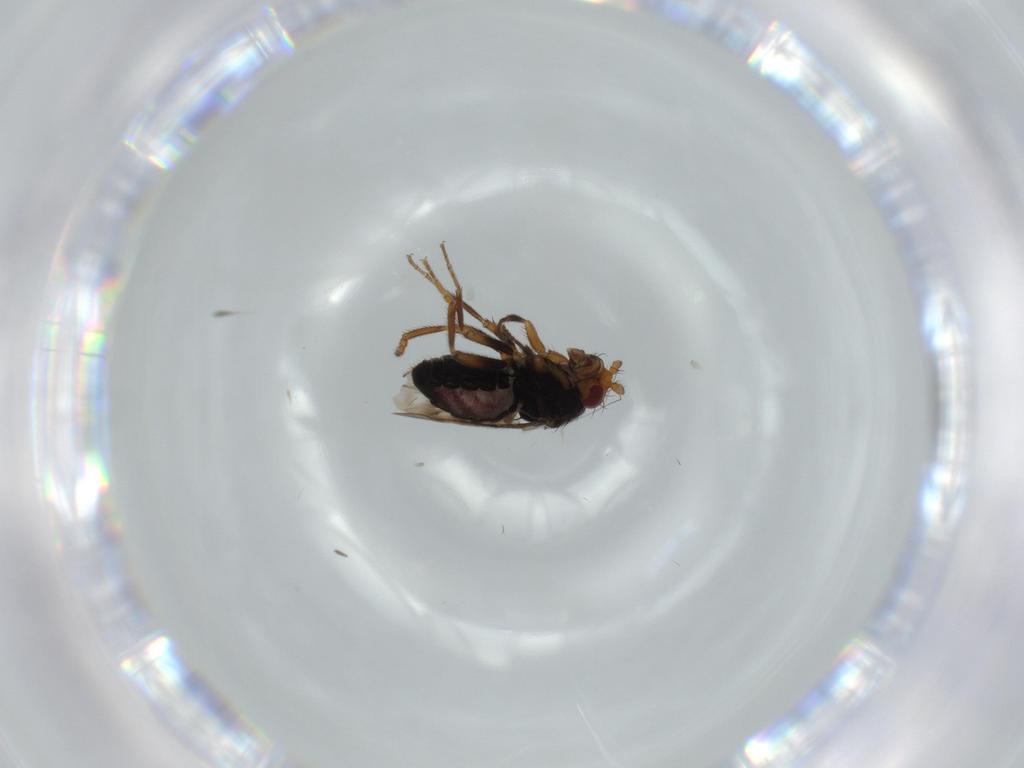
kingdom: Animalia
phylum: Arthropoda
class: Insecta
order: Diptera
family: Sphaeroceridae
